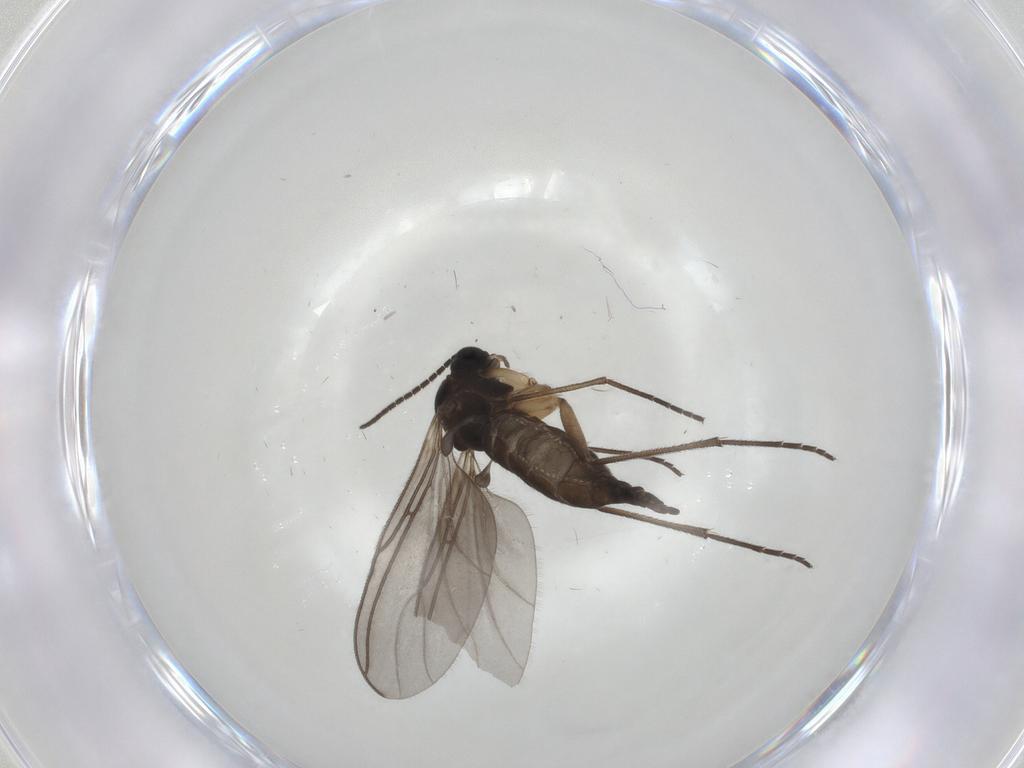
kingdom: Animalia
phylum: Arthropoda
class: Insecta
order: Diptera
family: Sciaridae
